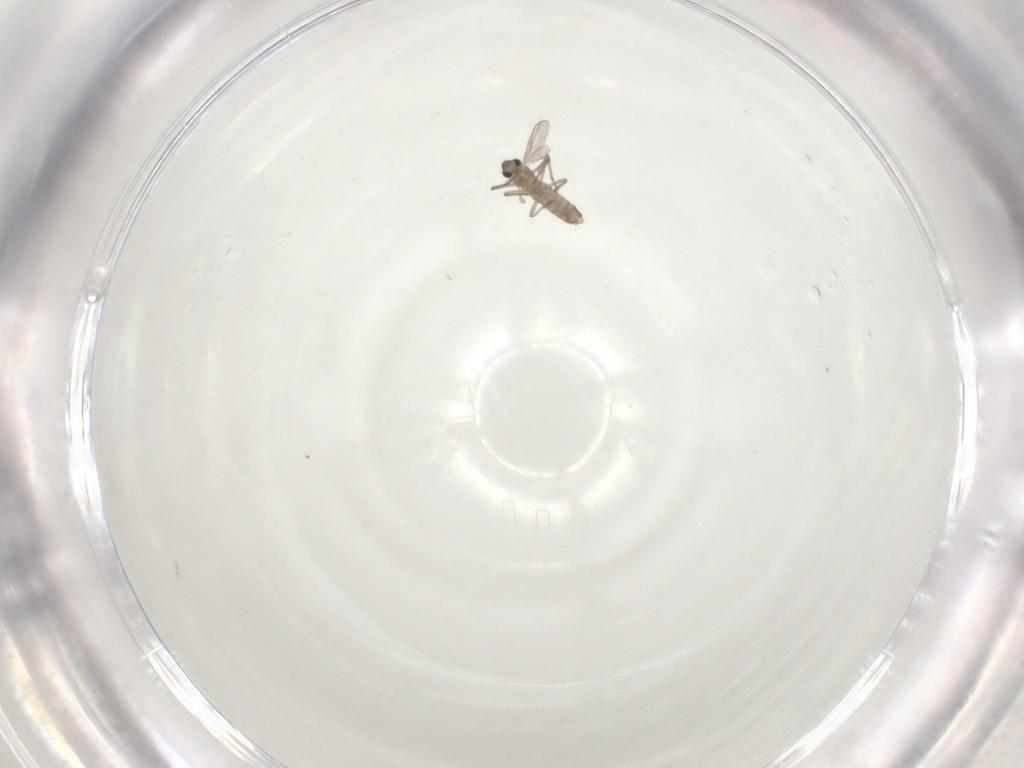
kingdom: Animalia
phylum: Arthropoda
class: Insecta
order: Diptera
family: Chironomidae
